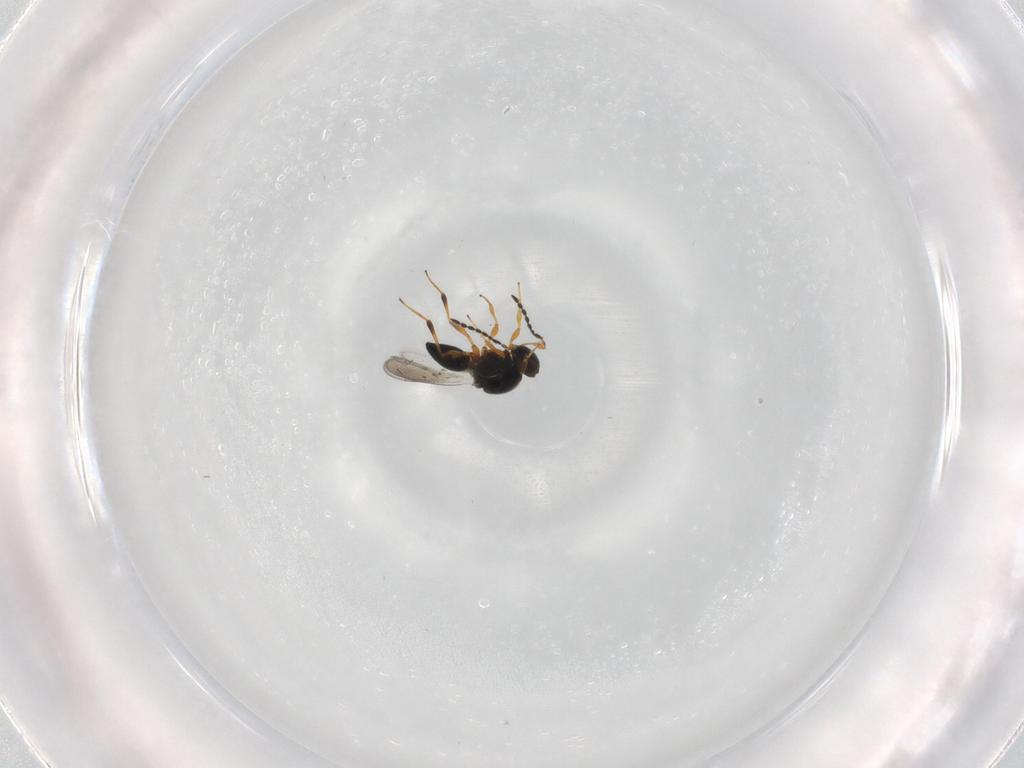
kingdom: Animalia
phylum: Arthropoda
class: Insecta
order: Hymenoptera
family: Platygastridae
